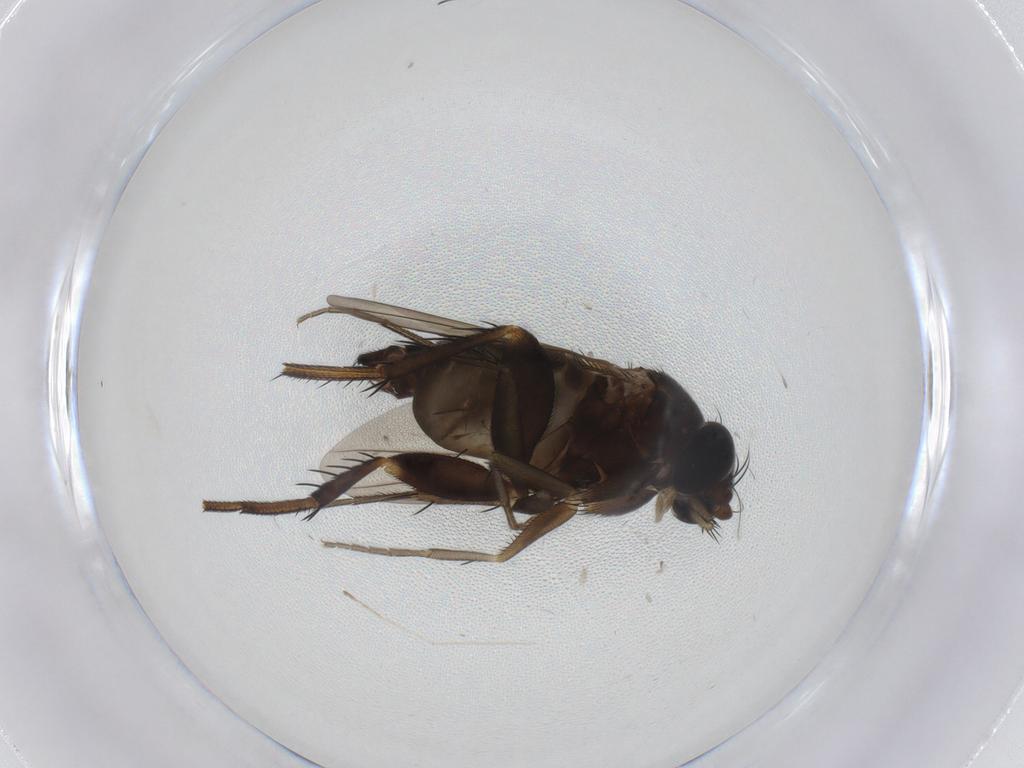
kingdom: Animalia
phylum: Arthropoda
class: Insecta
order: Diptera
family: Phoridae
